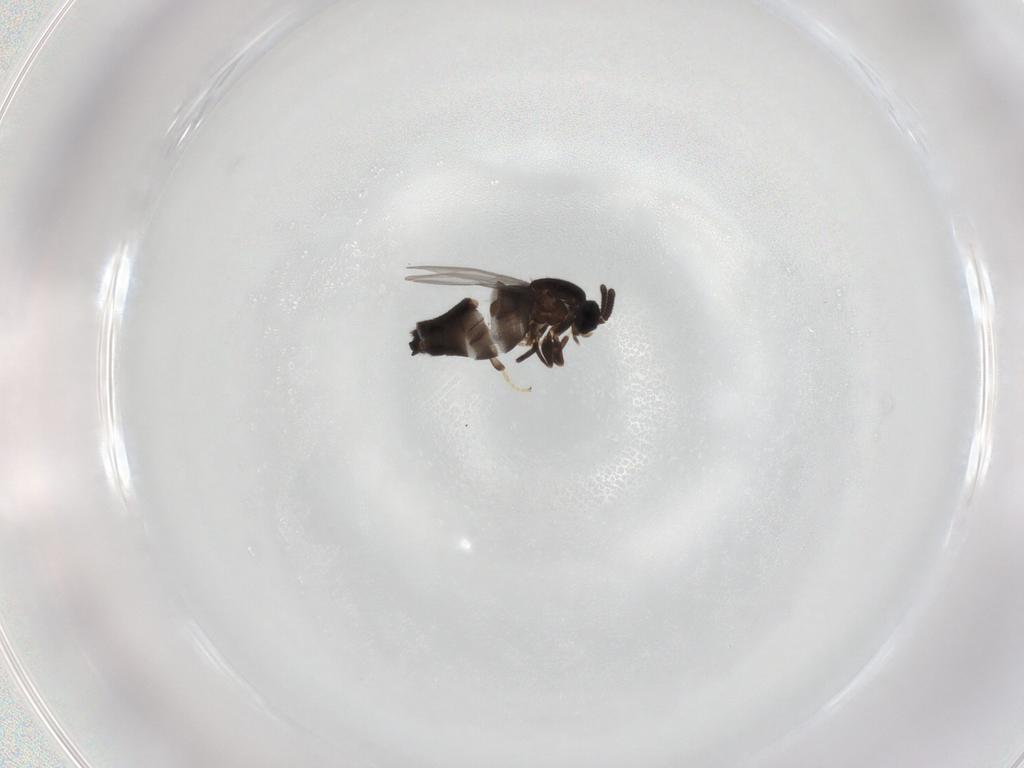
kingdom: Animalia
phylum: Arthropoda
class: Insecta
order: Diptera
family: Scatopsidae
